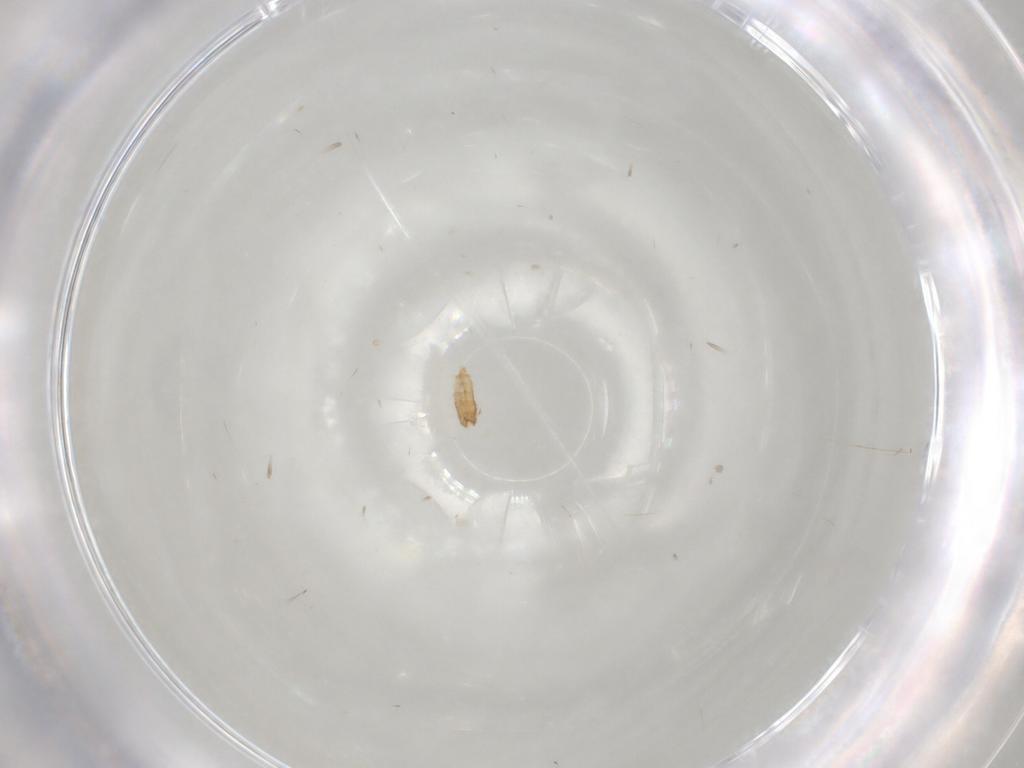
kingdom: Animalia
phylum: Arthropoda
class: Insecta
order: Diptera
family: Cecidomyiidae
